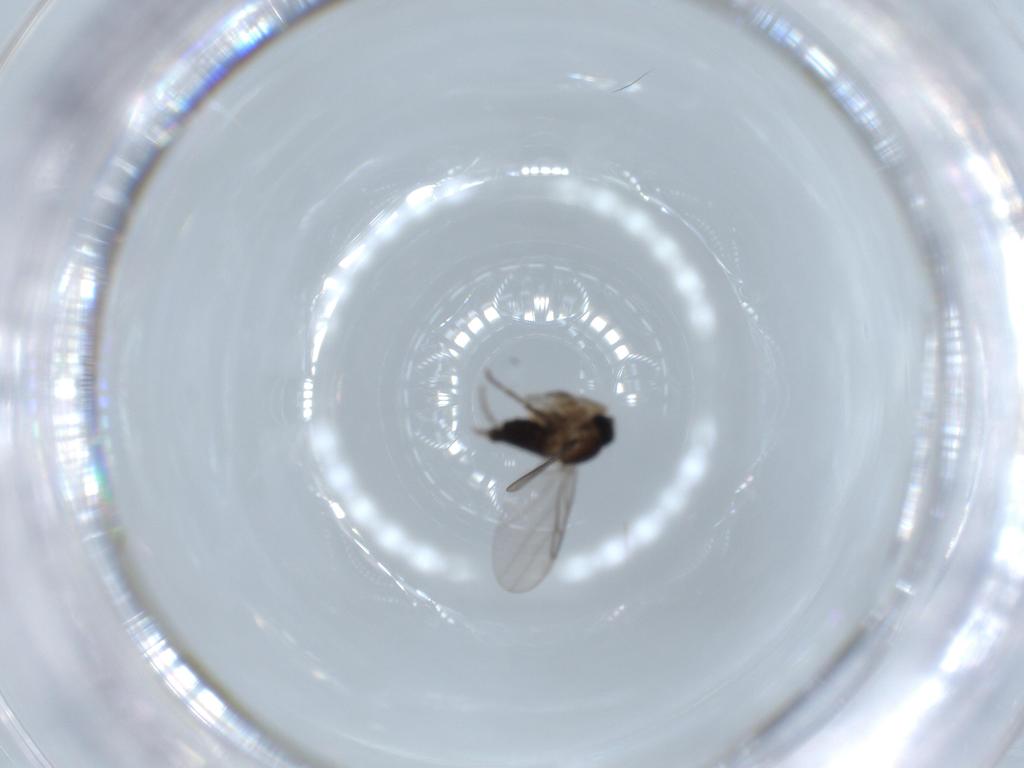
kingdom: Animalia
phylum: Arthropoda
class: Insecta
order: Diptera
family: Phoridae
